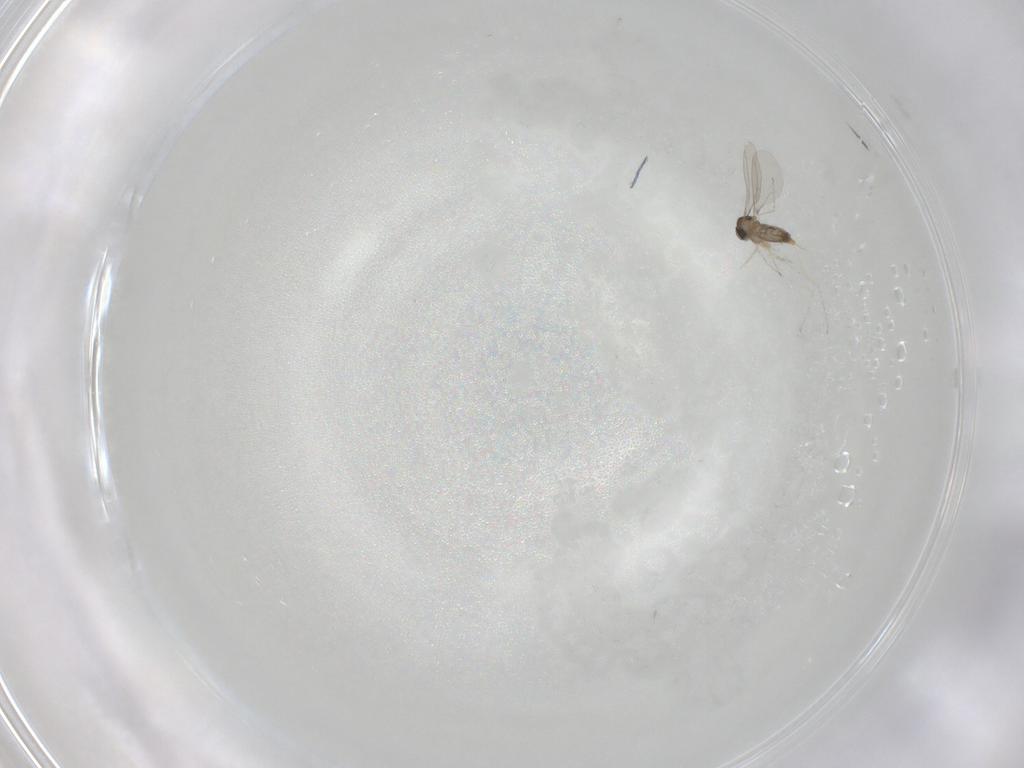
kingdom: Animalia
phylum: Arthropoda
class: Insecta
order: Diptera
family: Cecidomyiidae
